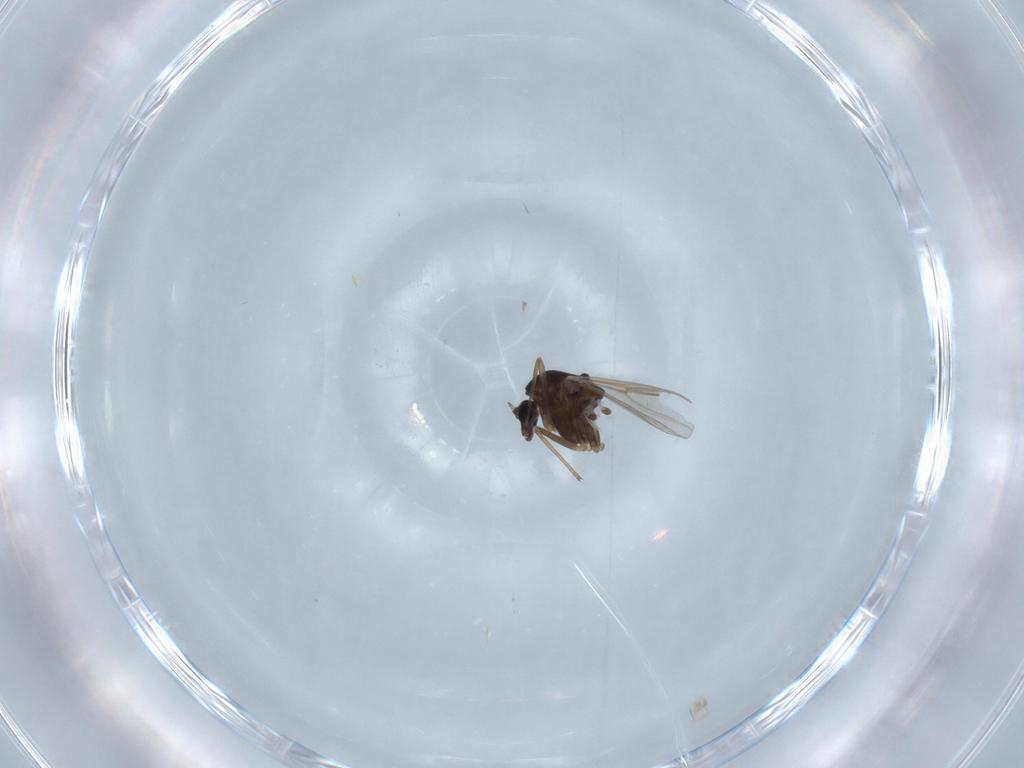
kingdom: Animalia
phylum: Arthropoda
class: Insecta
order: Diptera
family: Chironomidae
